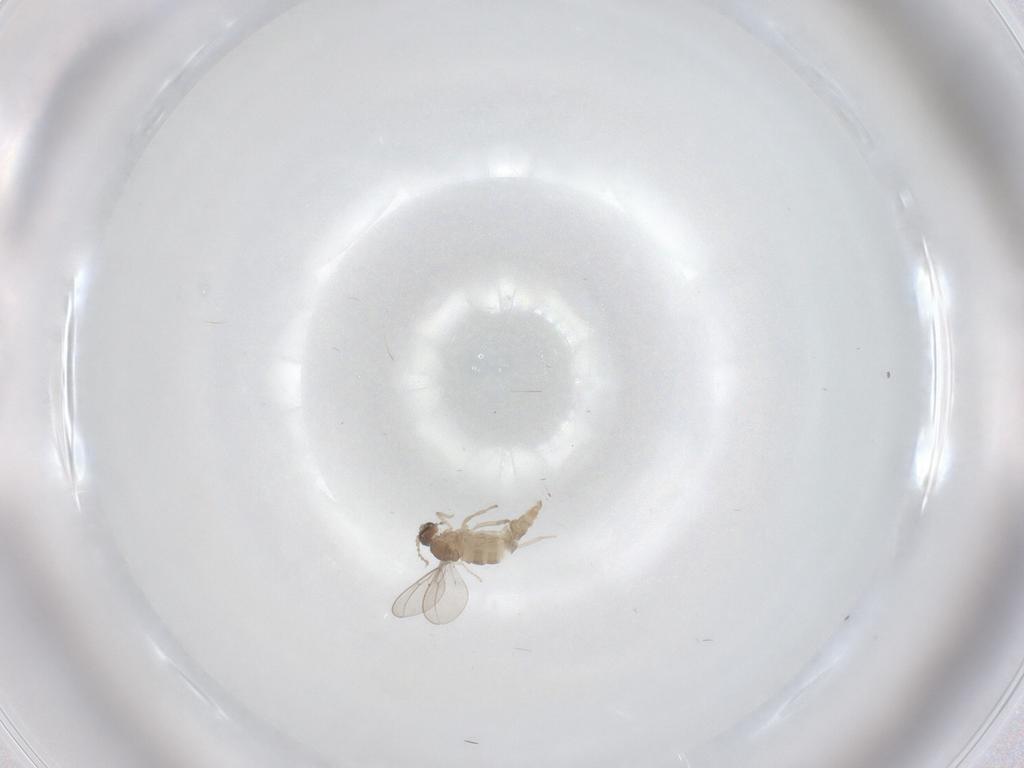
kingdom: Animalia
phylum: Arthropoda
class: Insecta
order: Diptera
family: Cecidomyiidae
